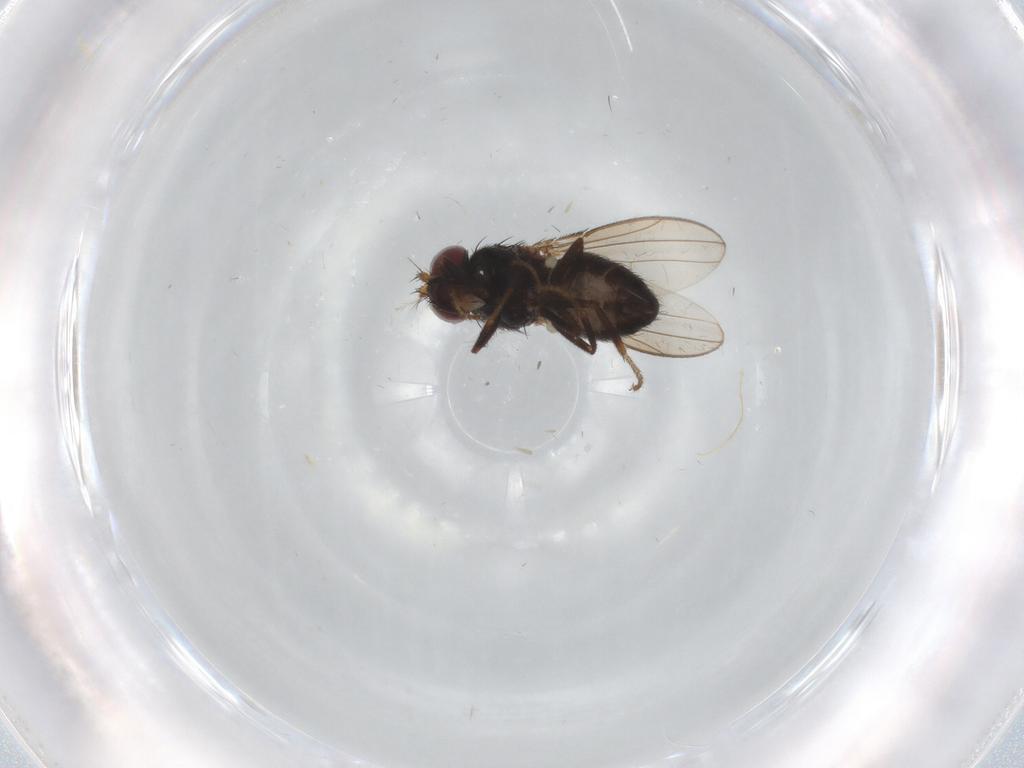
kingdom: Animalia
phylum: Arthropoda
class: Insecta
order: Diptera
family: Ceratopogonidae
